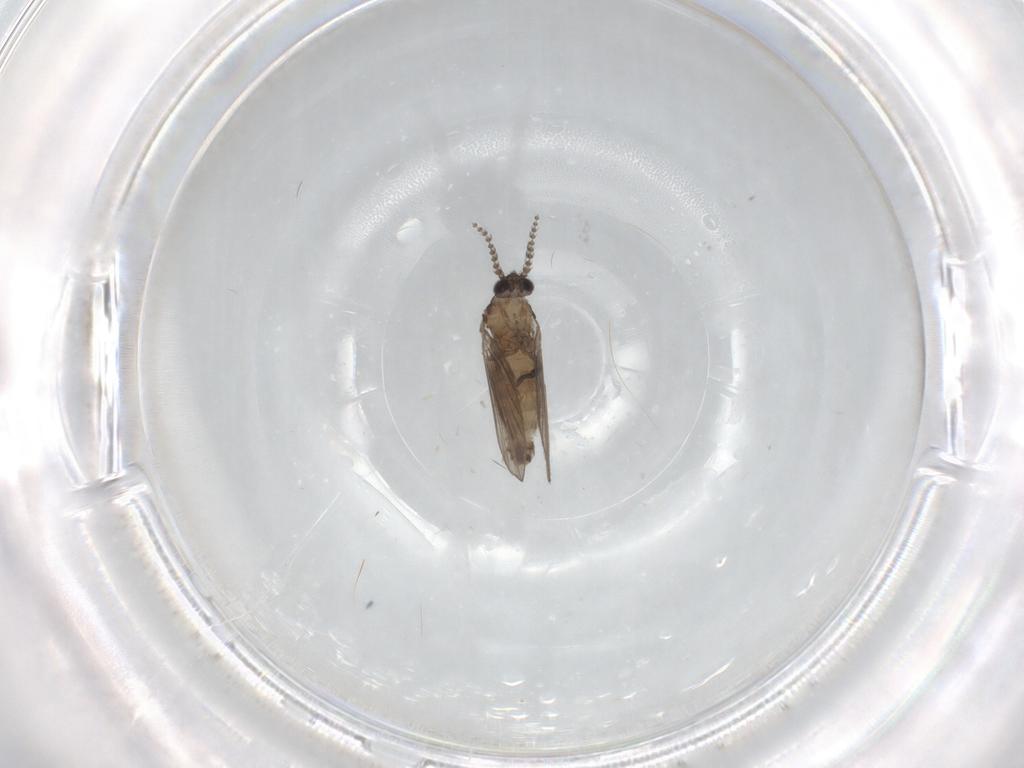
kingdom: Animalia
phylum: Arthropoda
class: Insecta
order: Diptera
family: Psychodidae
